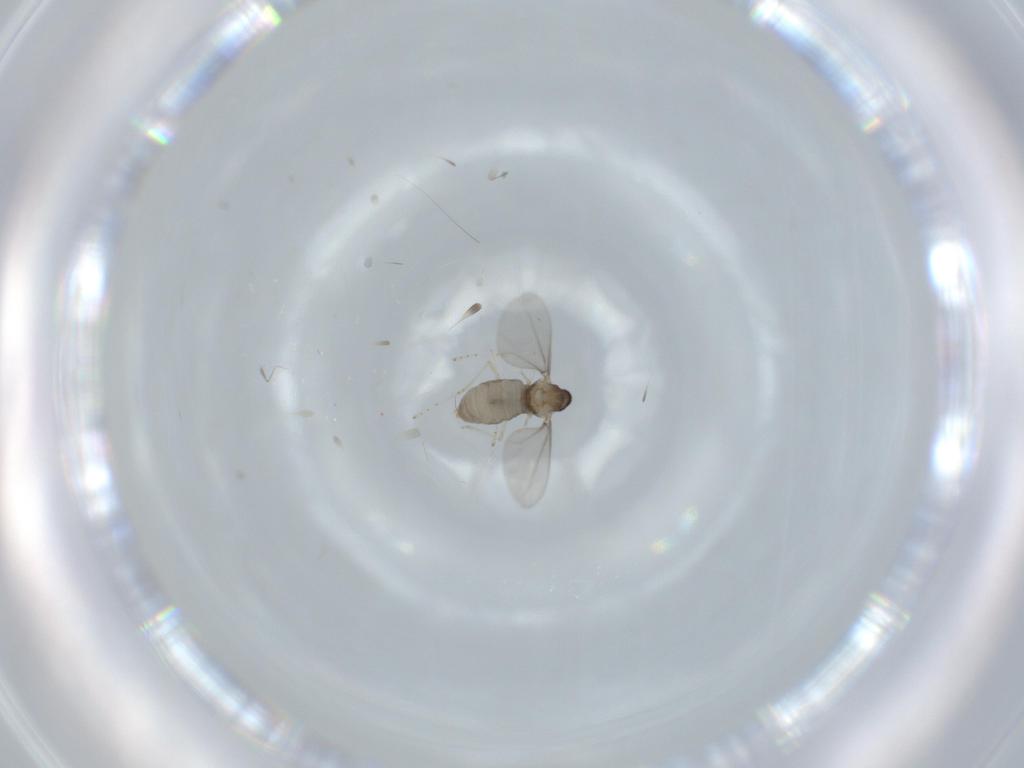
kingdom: Animalia
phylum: Arthropoda
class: Insecta
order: Diptera
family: Cecidomyiidae
